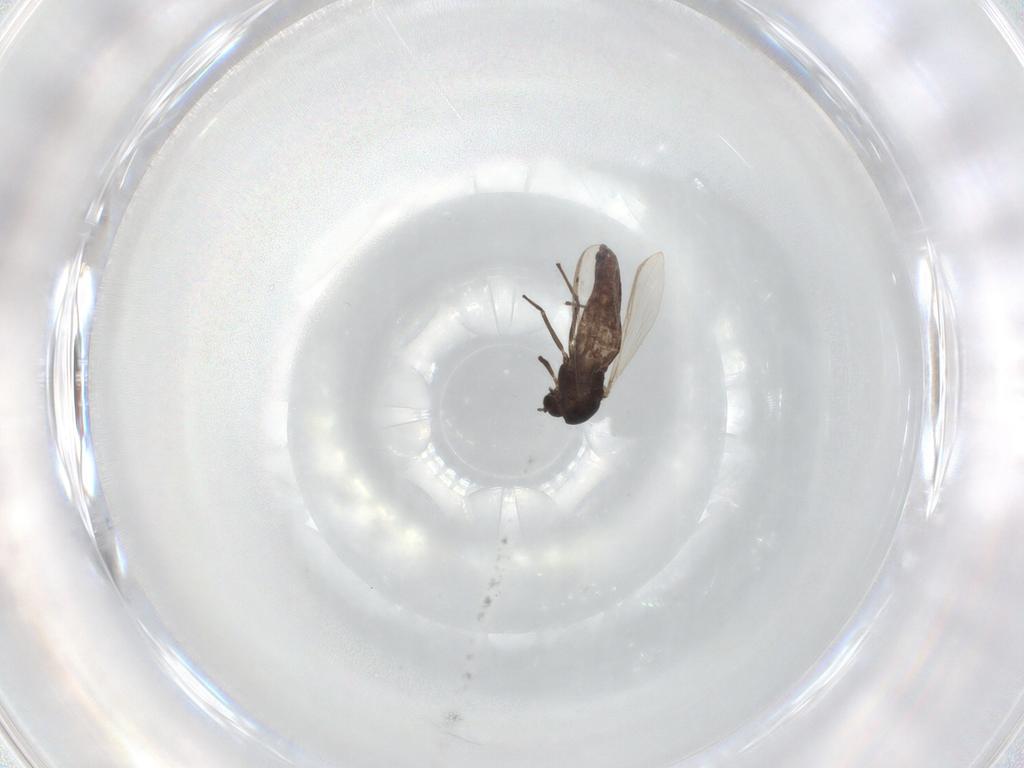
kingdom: Animalia
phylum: Arthropoda
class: Insecta
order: Diptera
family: Chironomidae
